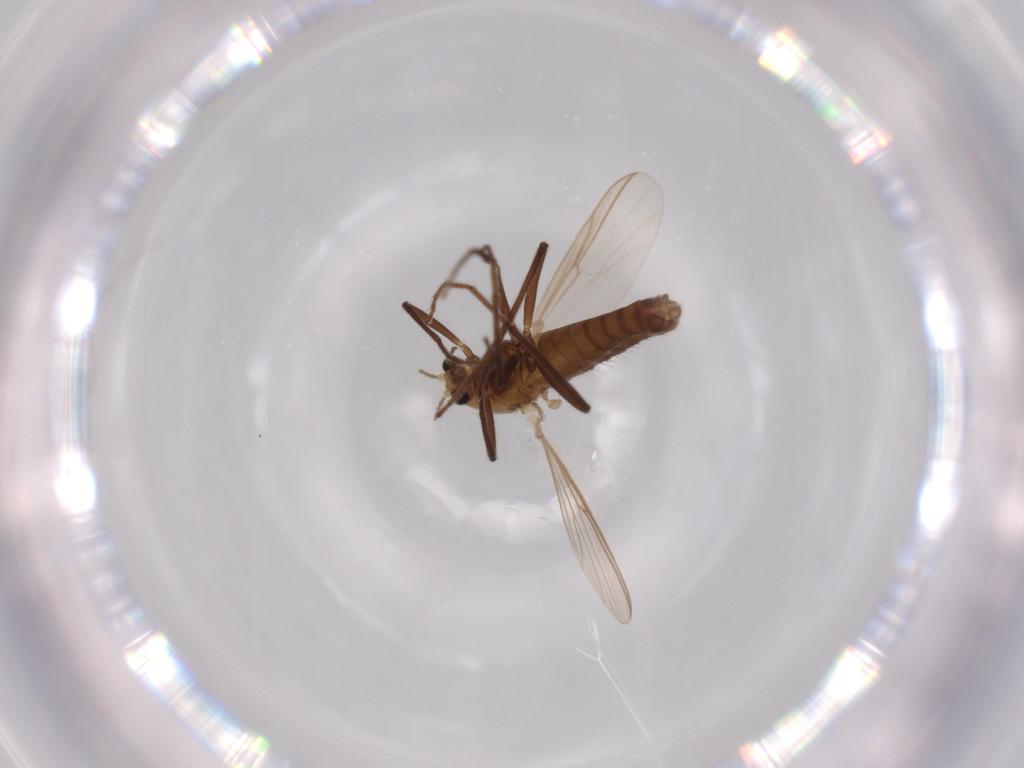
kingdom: Animalia
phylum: Arthropoda
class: Insecta
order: Diptera
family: Chironomidae
